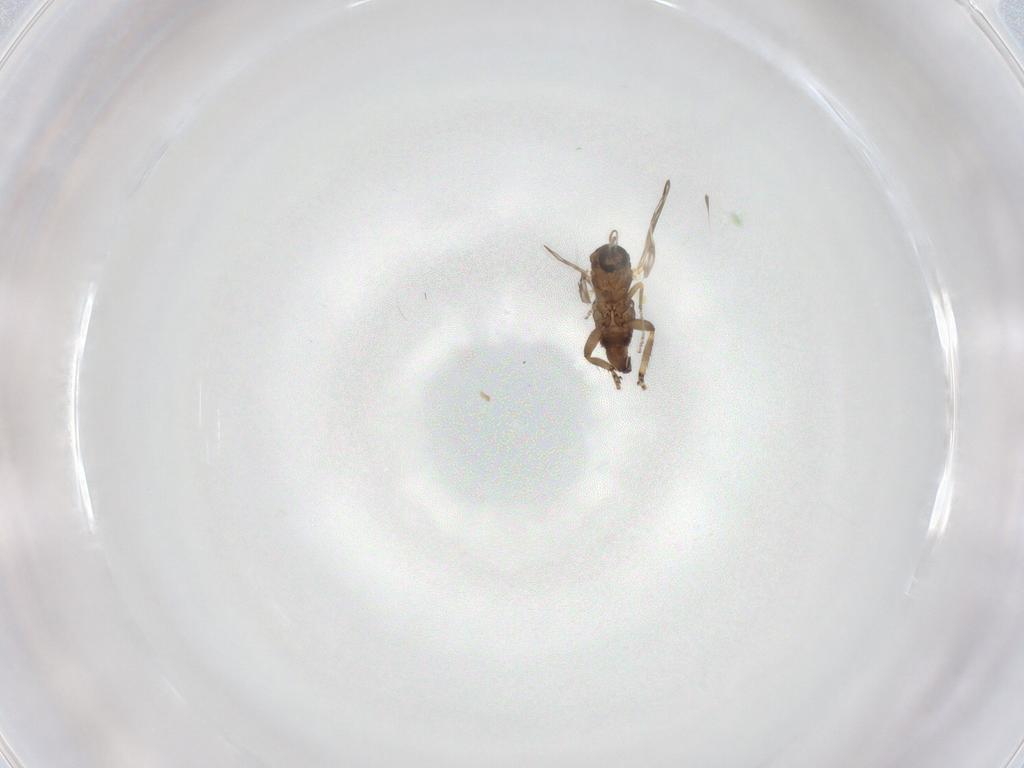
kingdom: Animalia
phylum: Arthropoda
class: Insecta
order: Diptera
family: Ceratopogonidae
